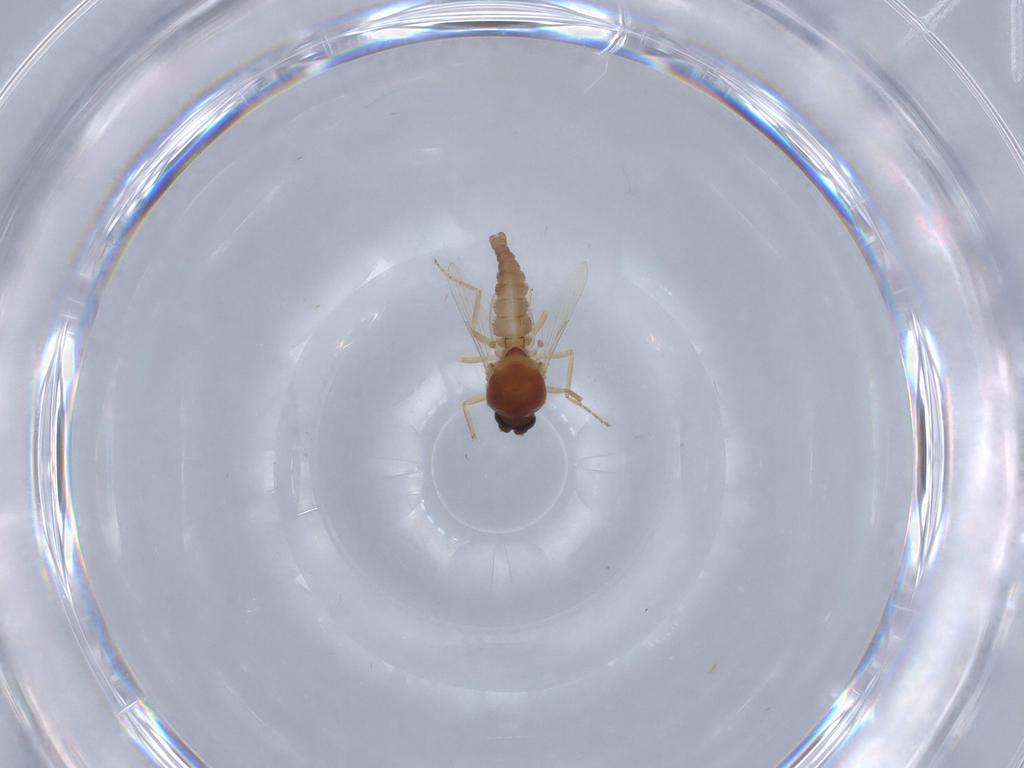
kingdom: Animalia
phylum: Arthropoda
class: Insecta
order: Diptera
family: Ceratopogonidae
